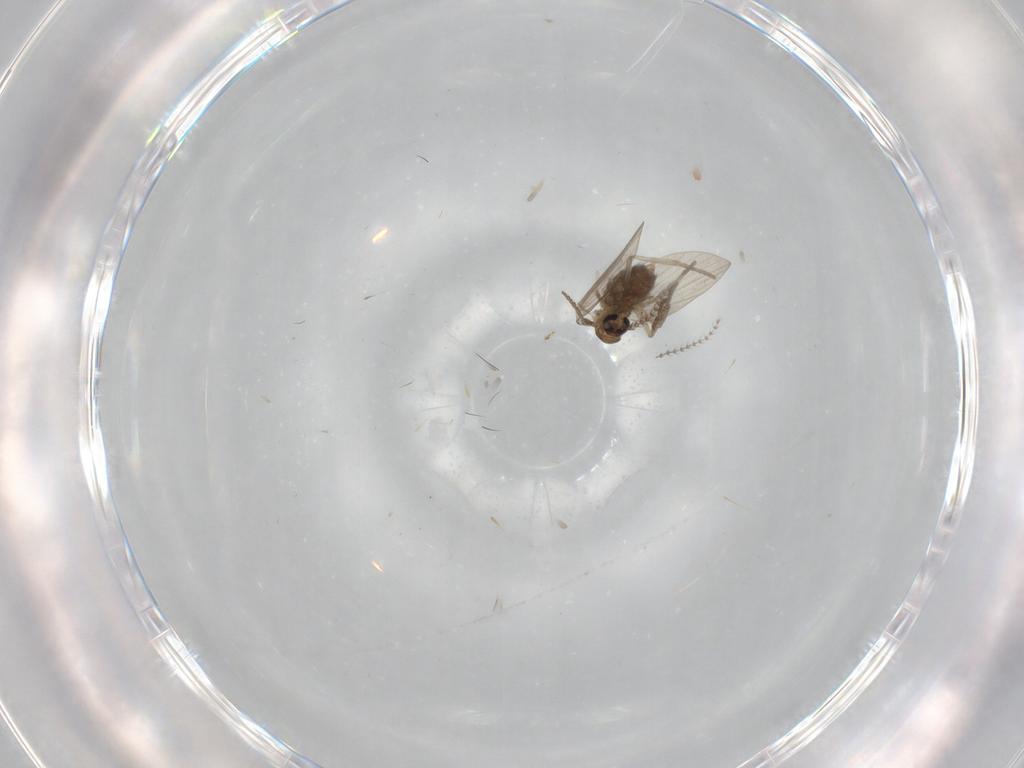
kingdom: Animalia
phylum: Arthropoda
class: Insecta
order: Diptera
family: Psychodidae
